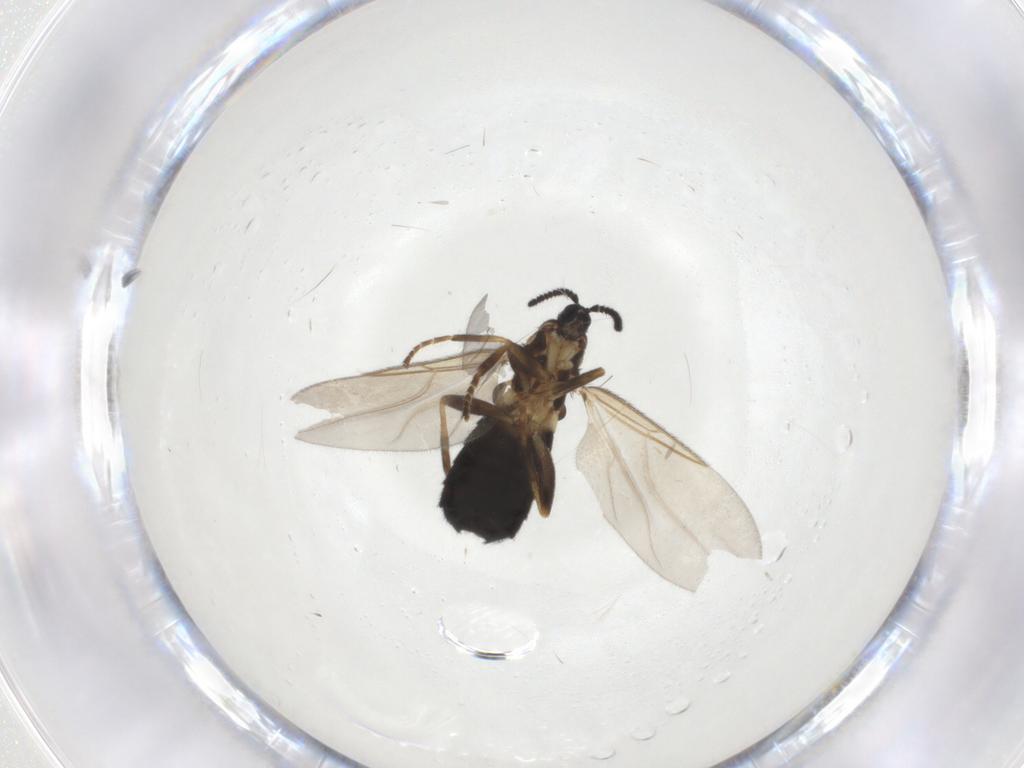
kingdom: Animalia
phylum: Arthropoda
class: Insecta
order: Diptera
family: Scatopsidae
